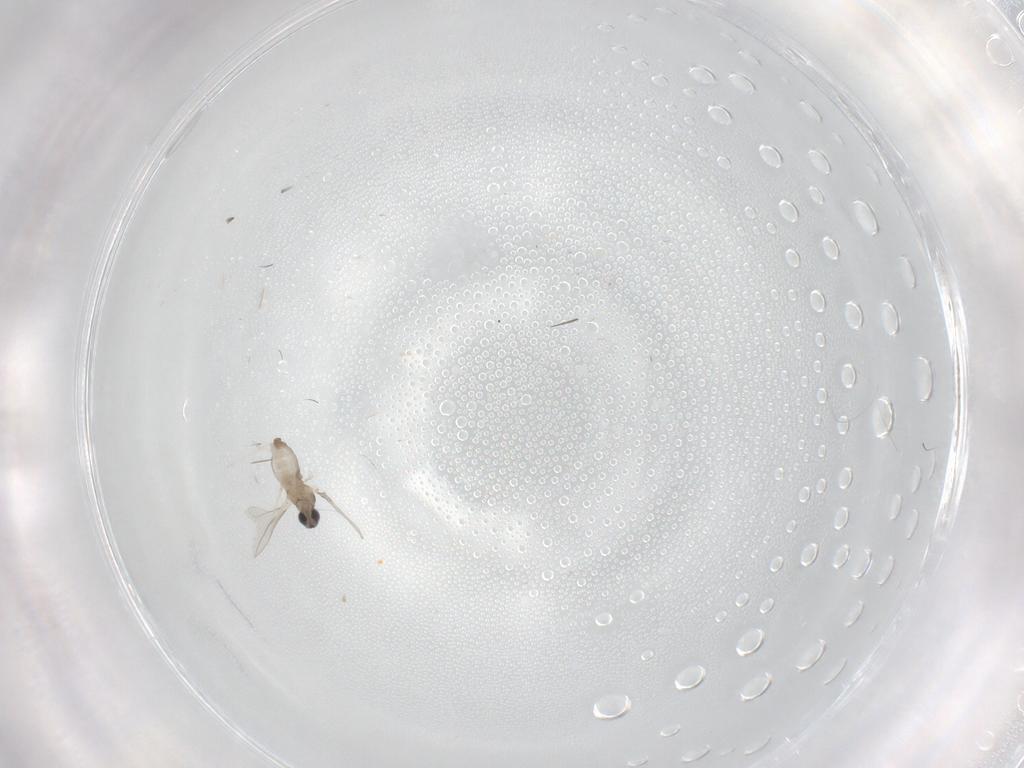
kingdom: Animalia
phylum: Arthropoda
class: Insecta
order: Diptera
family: Cecidomyiidae
